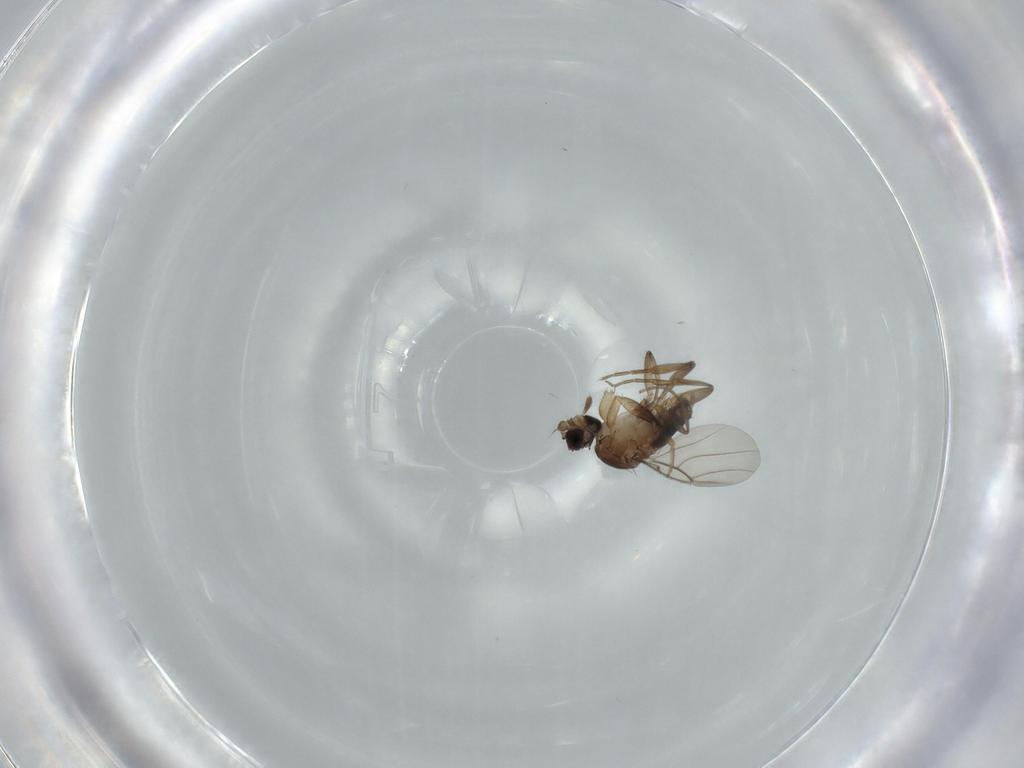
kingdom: Animalia
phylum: Arthropoda
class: Insecta
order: Diptera
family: Phoridae
